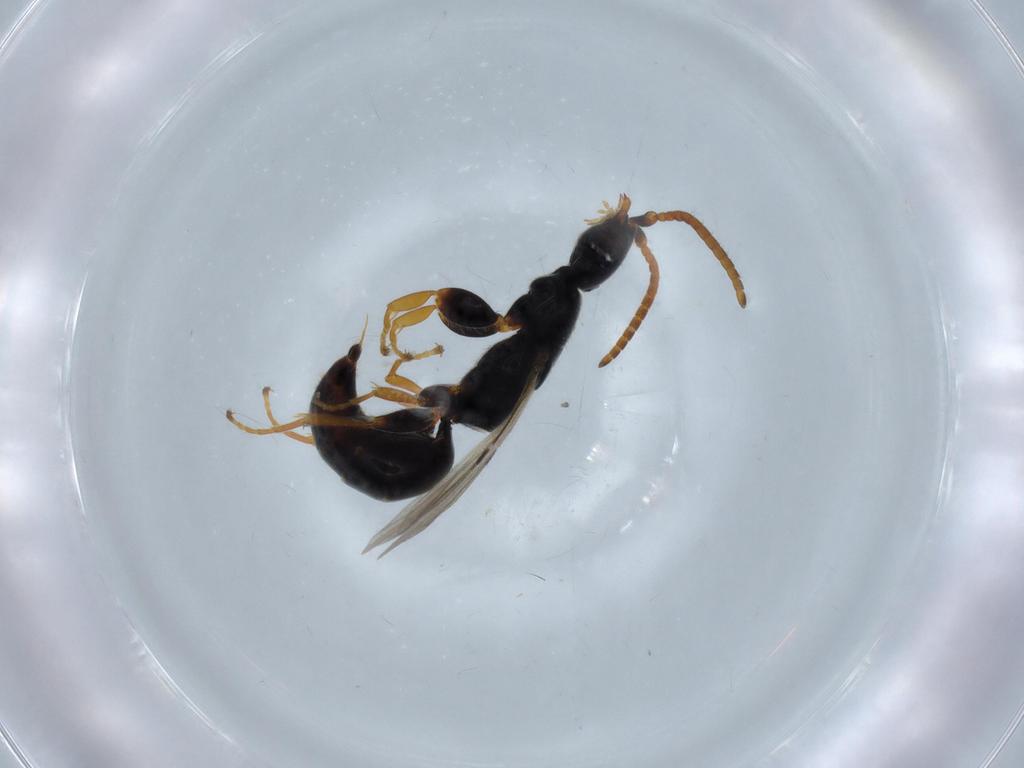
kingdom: Animalia
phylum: Arthropoda
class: Insecta
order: Hymenoptera
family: Bethylidae
